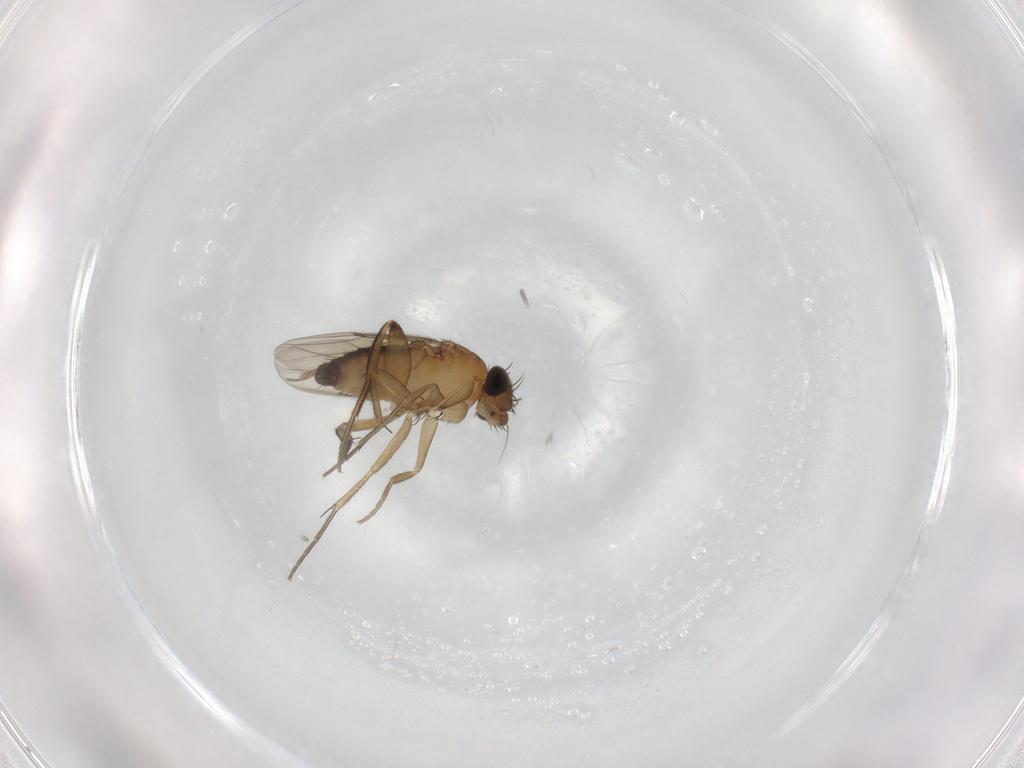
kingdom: Animalia
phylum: Arthropoda
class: Insecta
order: Diptera
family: Phoridae
